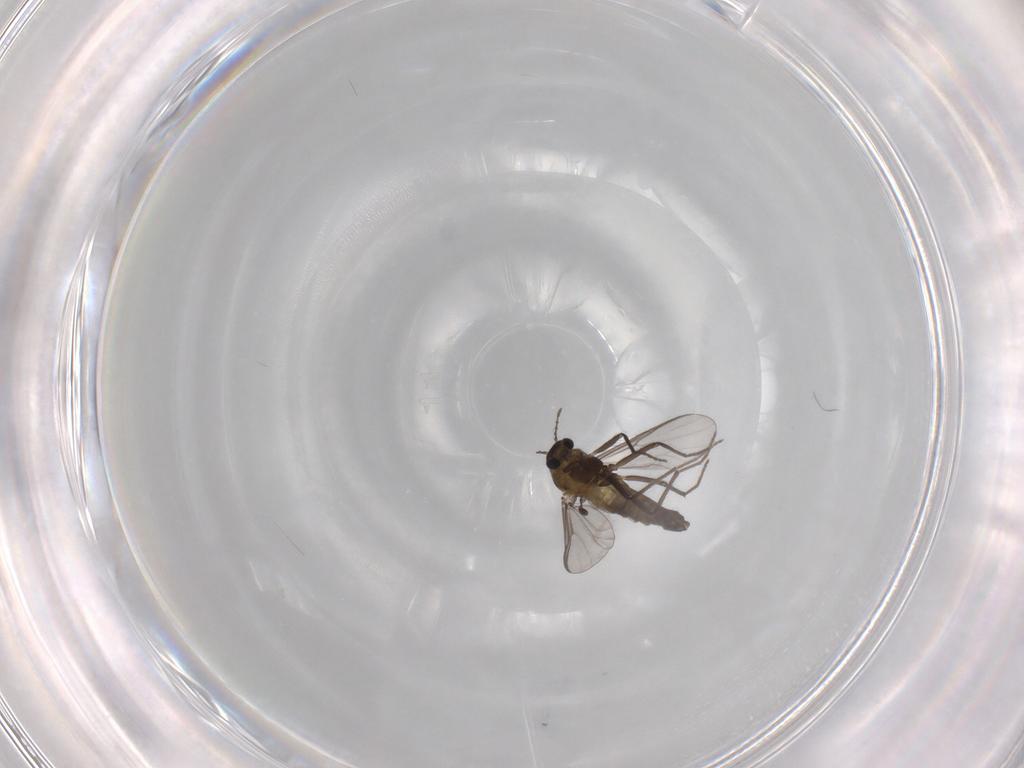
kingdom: Animalia
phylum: Arthropoda
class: Insecta
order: Diptera
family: Chironomidae
